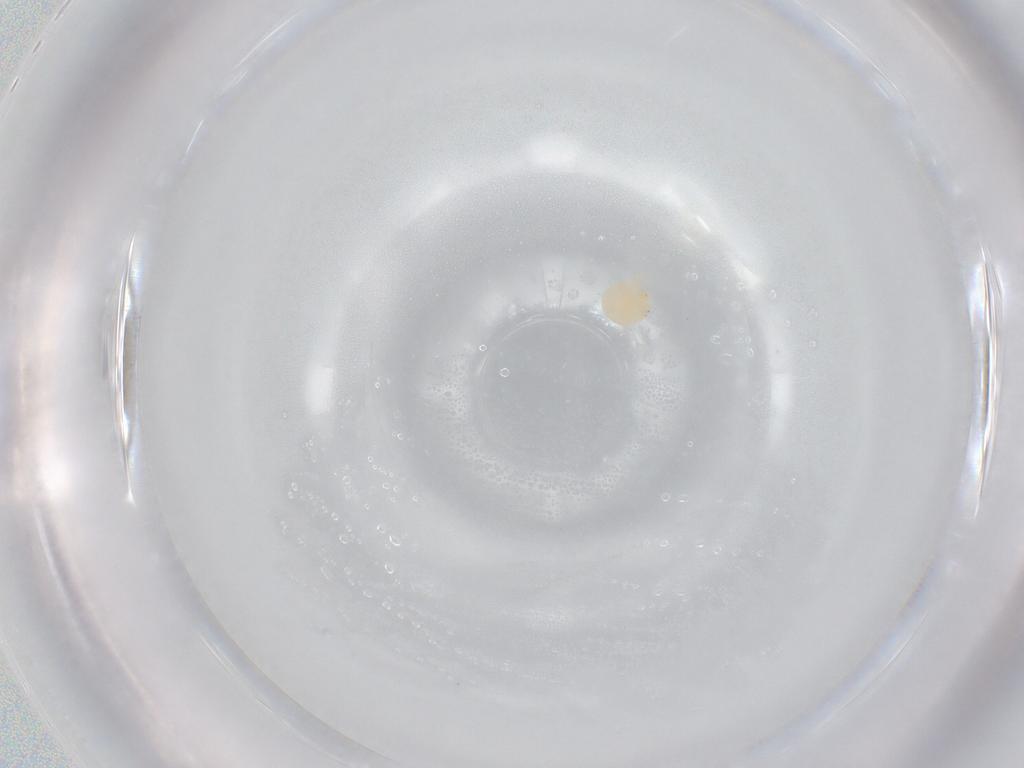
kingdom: Animalia
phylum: Arthropoda
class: Arachnida
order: Trombidiformes
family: Hydryphantidae
